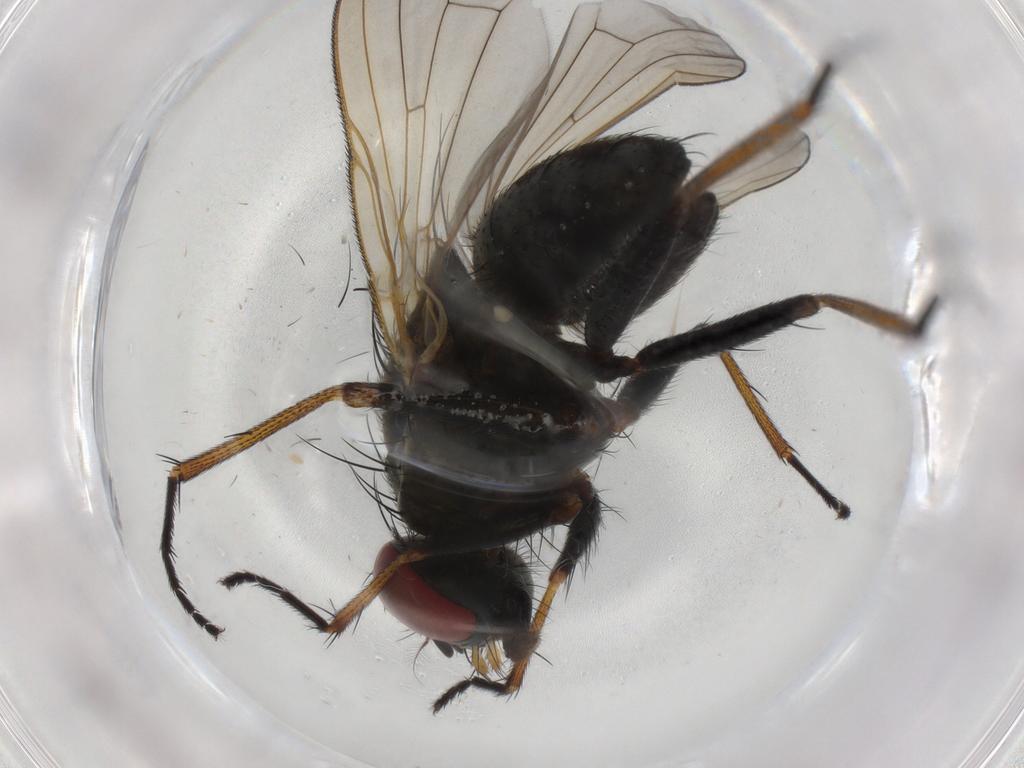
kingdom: Animalia
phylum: Arthropoda
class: Insecta
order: Diptera
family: Muscidae
